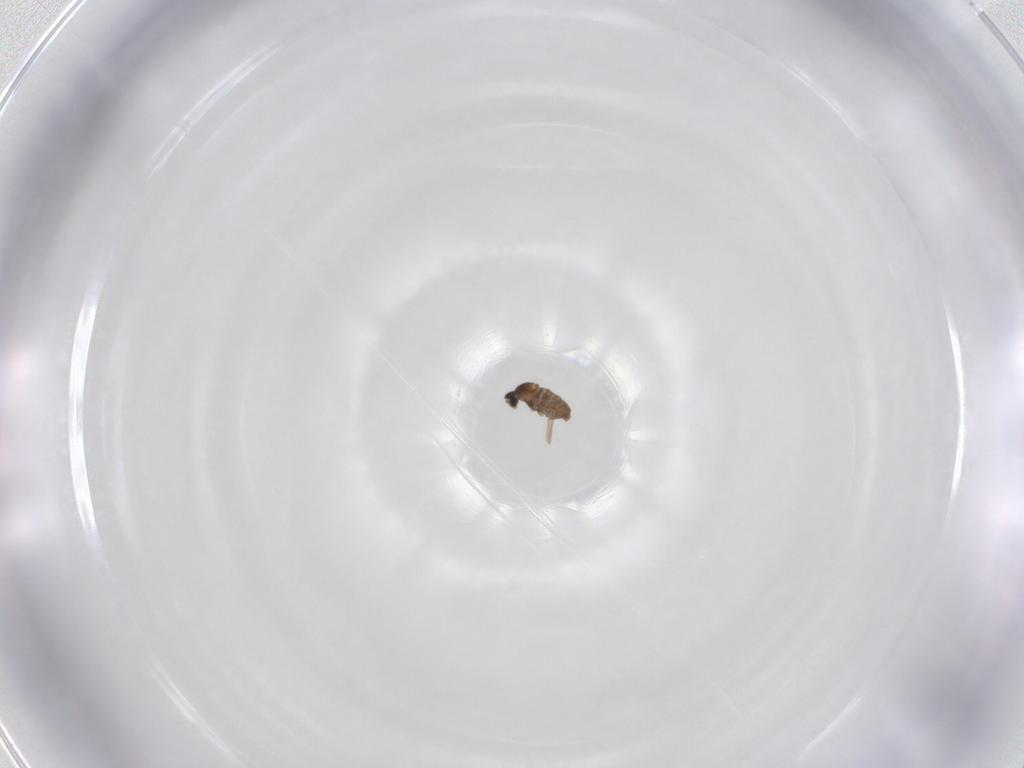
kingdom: Animalia
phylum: Arthropoda
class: Insecta
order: Diptera
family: Cecidomyiidae
